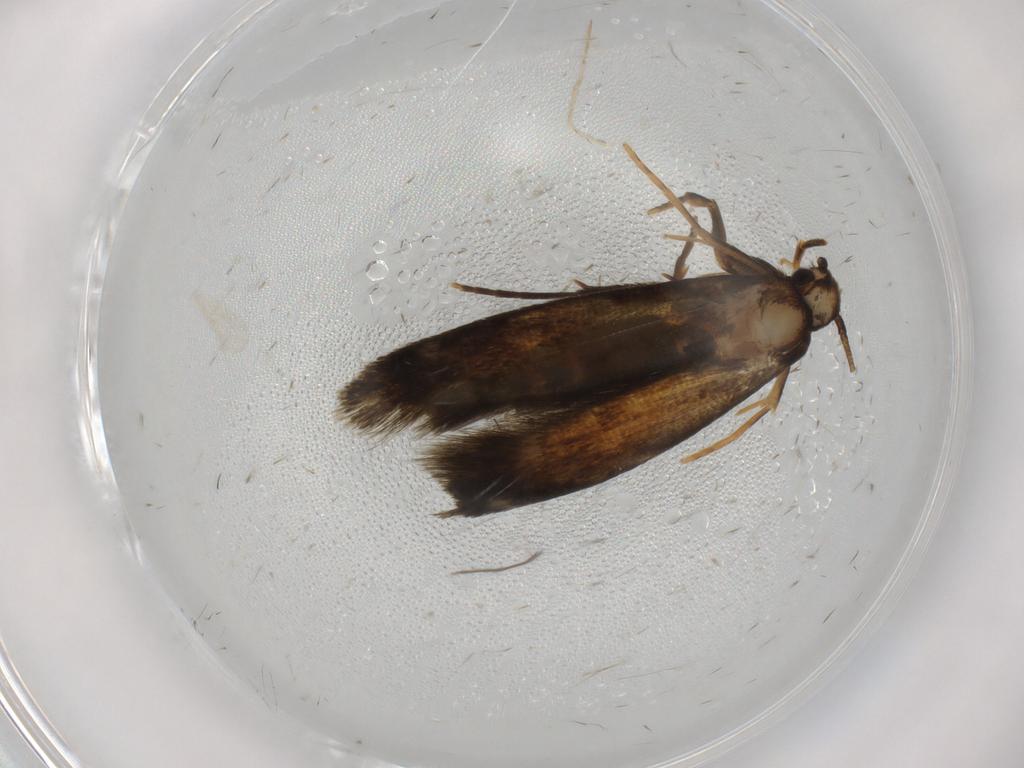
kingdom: Animalia
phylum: Arthropoda
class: Insecta
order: Lepidoptera
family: Tineidae
